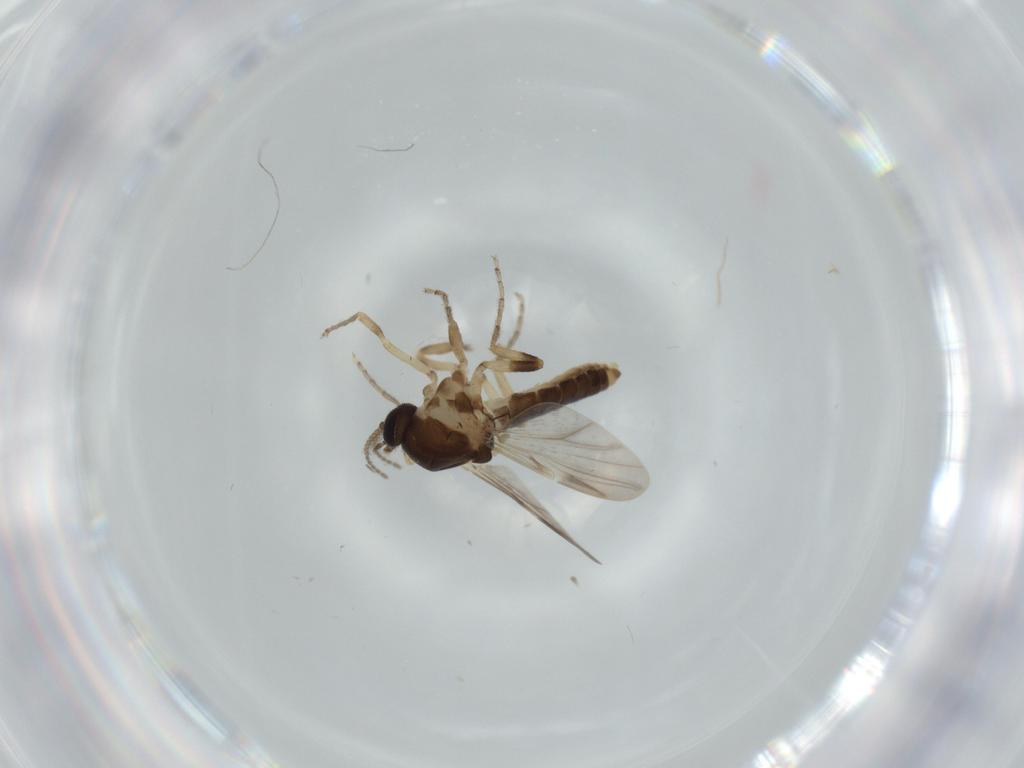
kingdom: Animalia
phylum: Arthropoda
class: Insecta
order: Diptera
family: Ceratopogonidae
